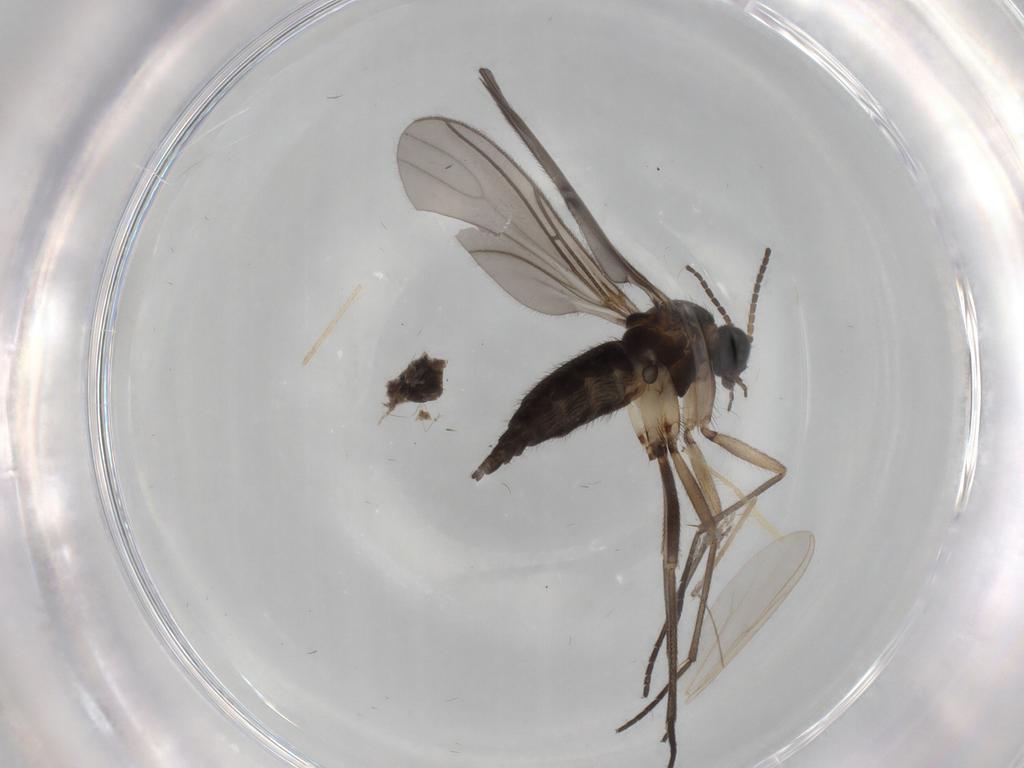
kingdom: Animalia
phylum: Arthropoda
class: Insecta
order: Diptera
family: Sciaridae
